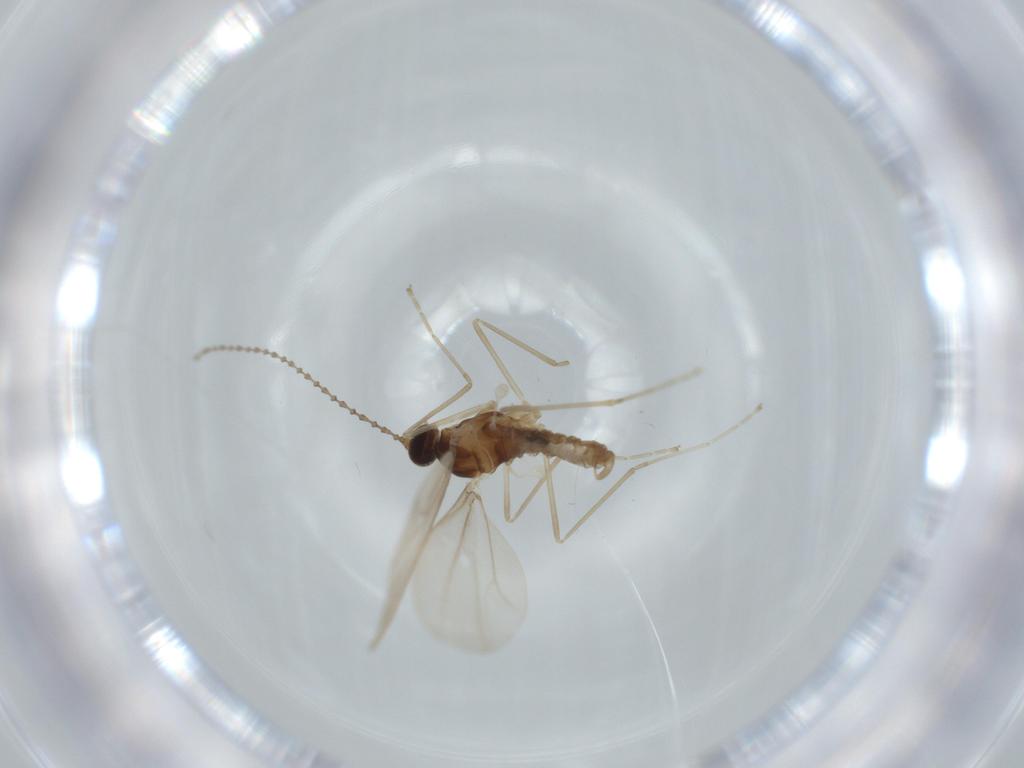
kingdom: Animalia
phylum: Arthropoda
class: Insecta
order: Diptera
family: Cecidomyiidae
